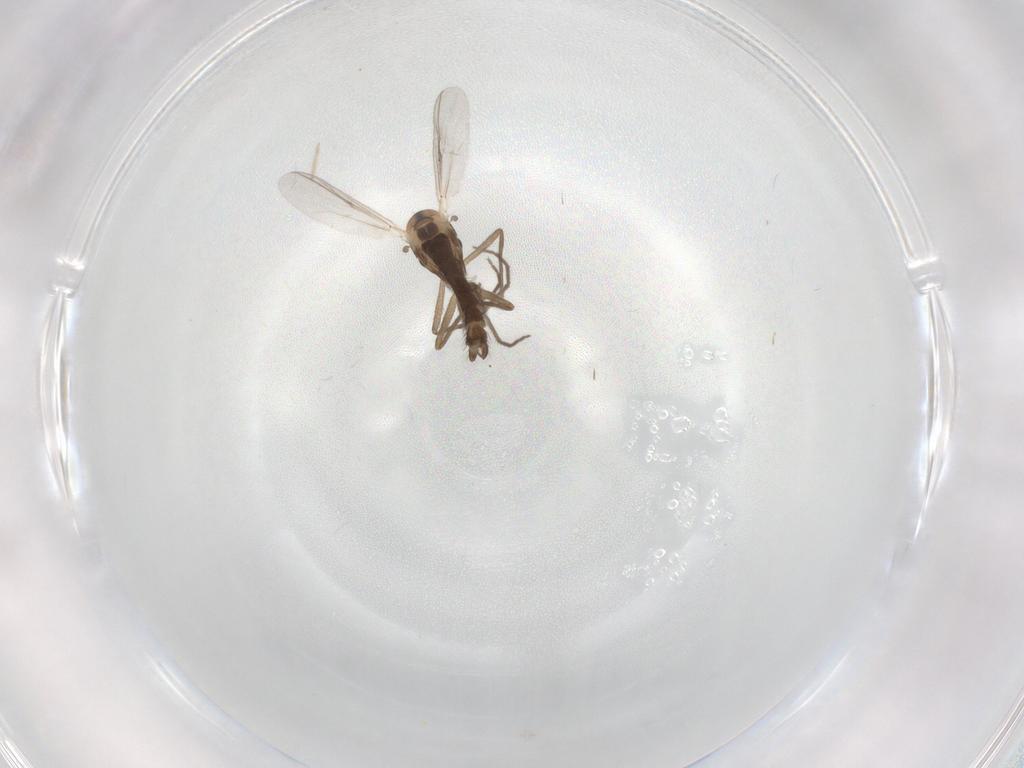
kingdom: Animalia
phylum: Arthropoda
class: Insecta
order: Diptera
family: Chironomidae
